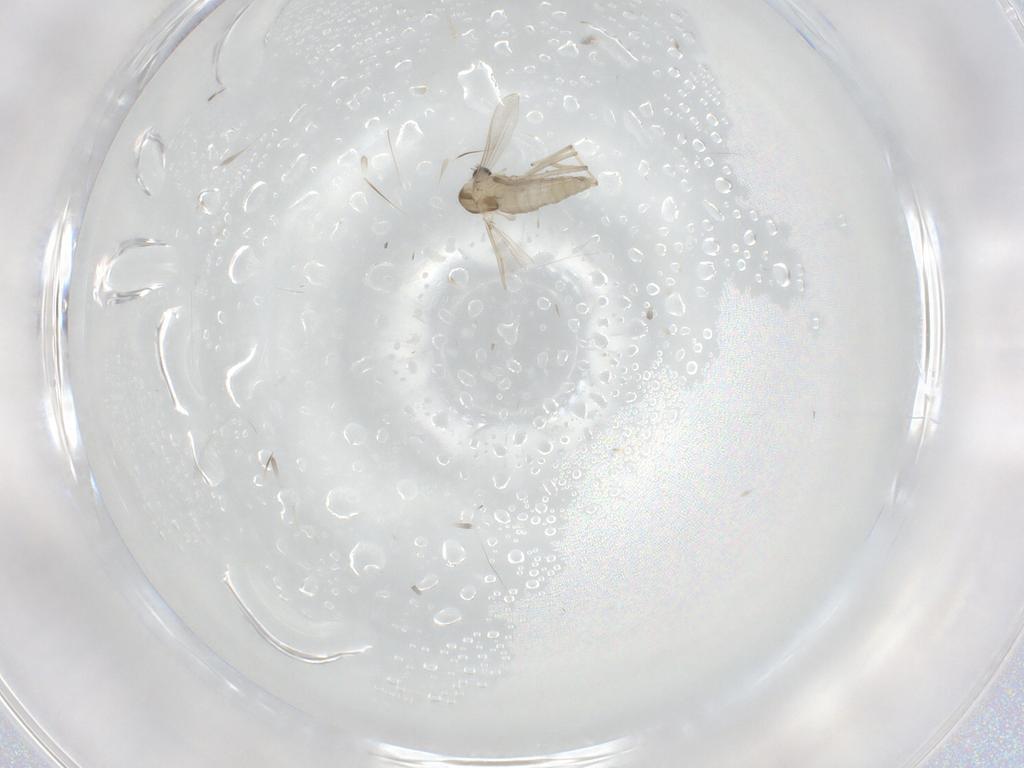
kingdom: Animalia
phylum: Arthropoda
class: Insecta
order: Diptera
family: Chironomidae
